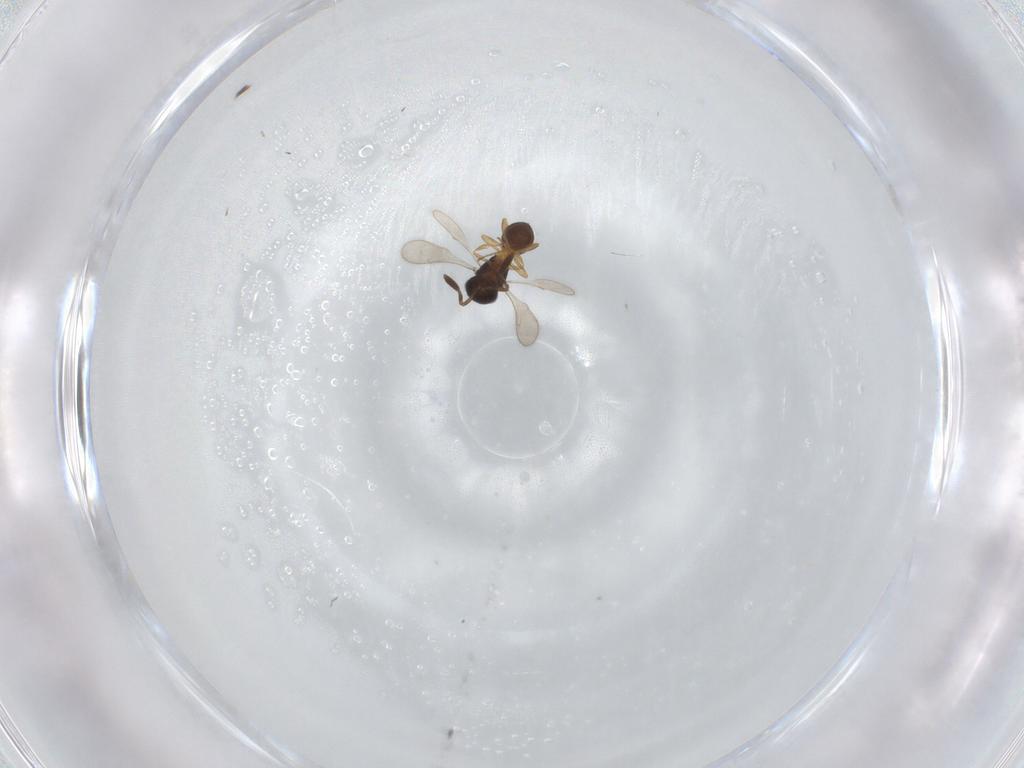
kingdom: Animalia
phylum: Arthropoda
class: Insecta
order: Hymenoptera
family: Scelionidae
